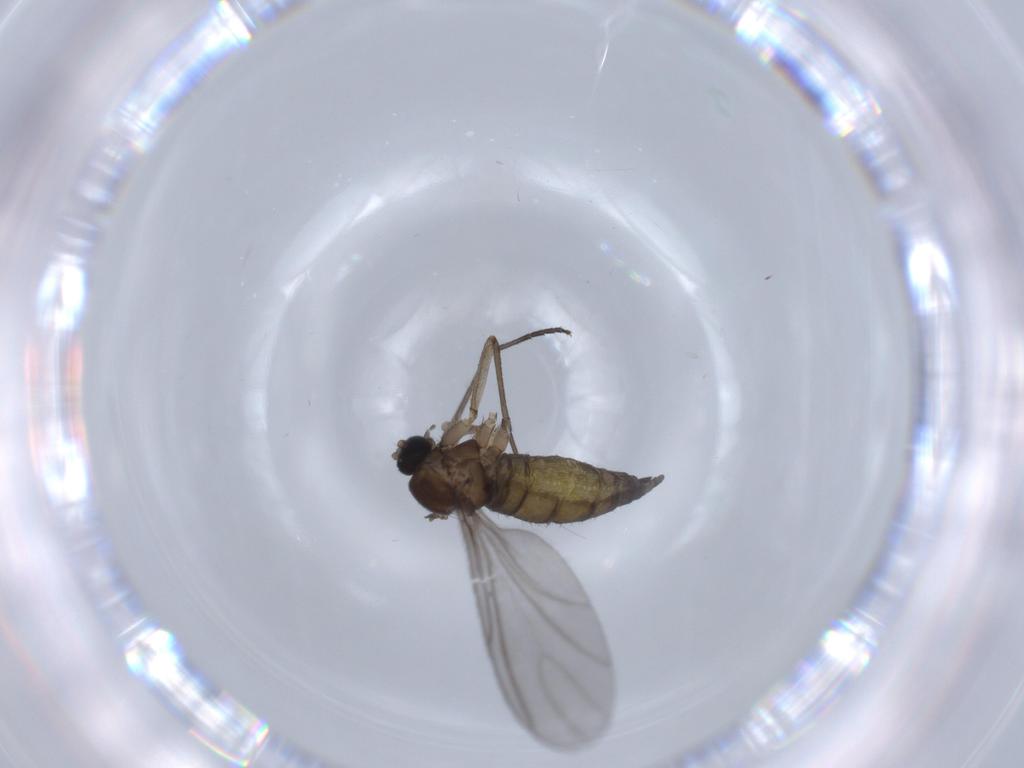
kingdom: Animalia
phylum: Arthropoda
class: Insecta
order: Diptera
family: Sciaridae
